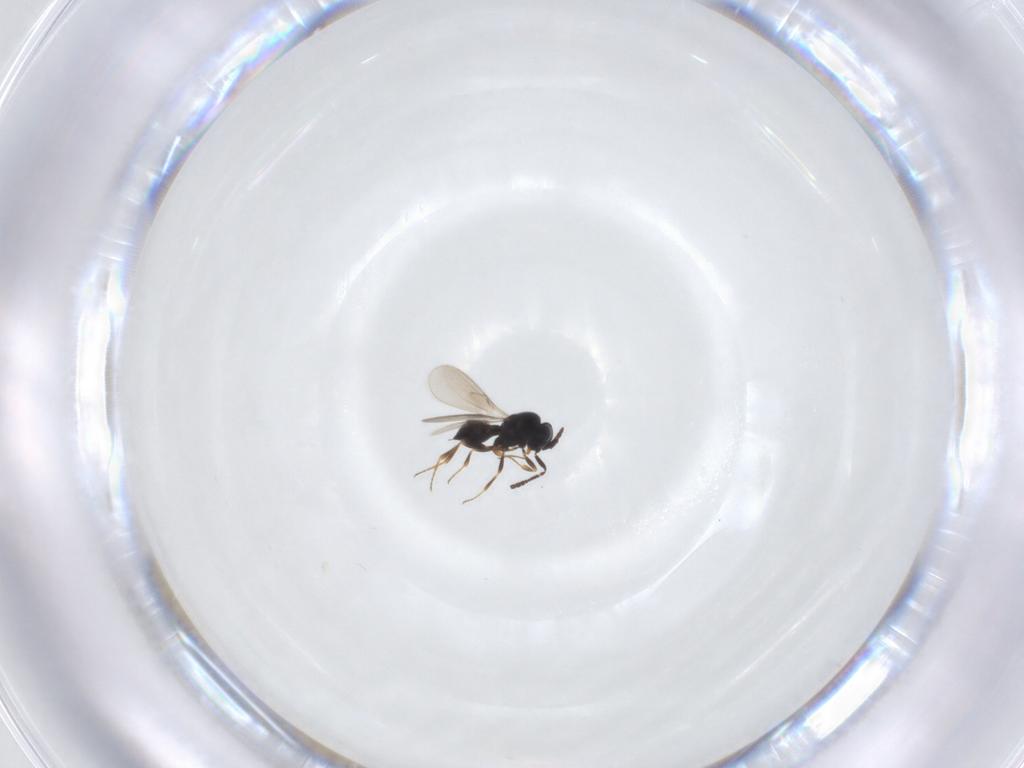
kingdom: Animalia
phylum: Arthropoda
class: Insecta
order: Hymenoptera
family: Scelionidae
